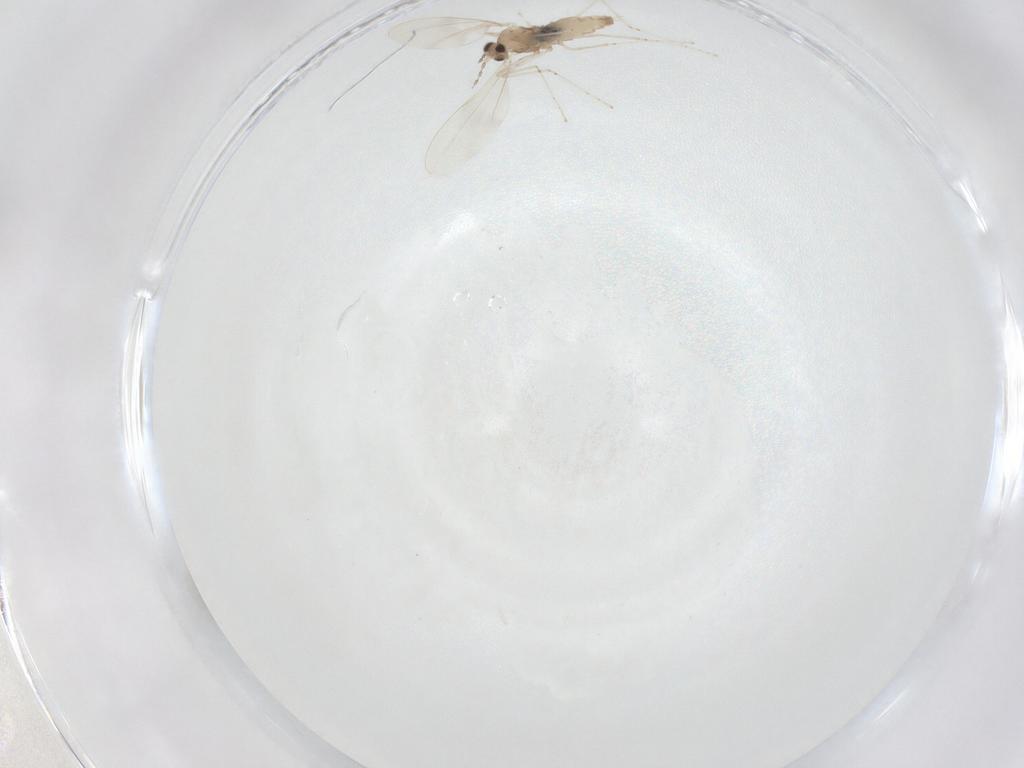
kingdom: Animalia
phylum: Arthropoda
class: Insecta
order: Diptera
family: Cecidomyiidae
